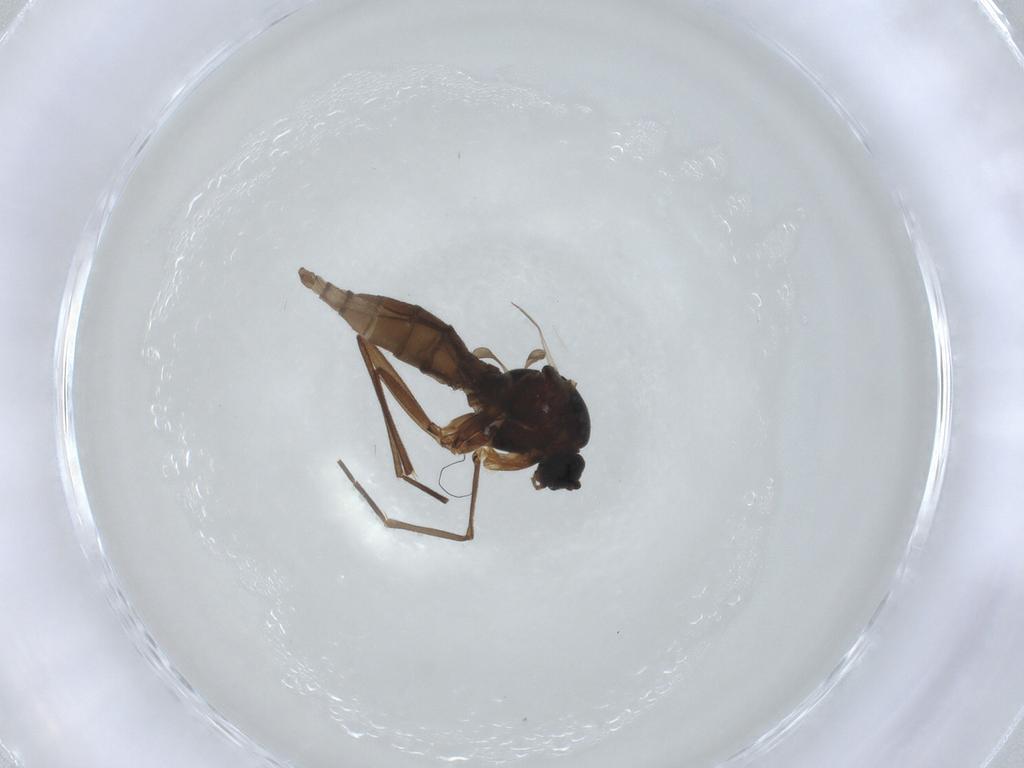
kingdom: Animalia
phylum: Arthropoda
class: Insecta
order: Diptera
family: Sciaridae
